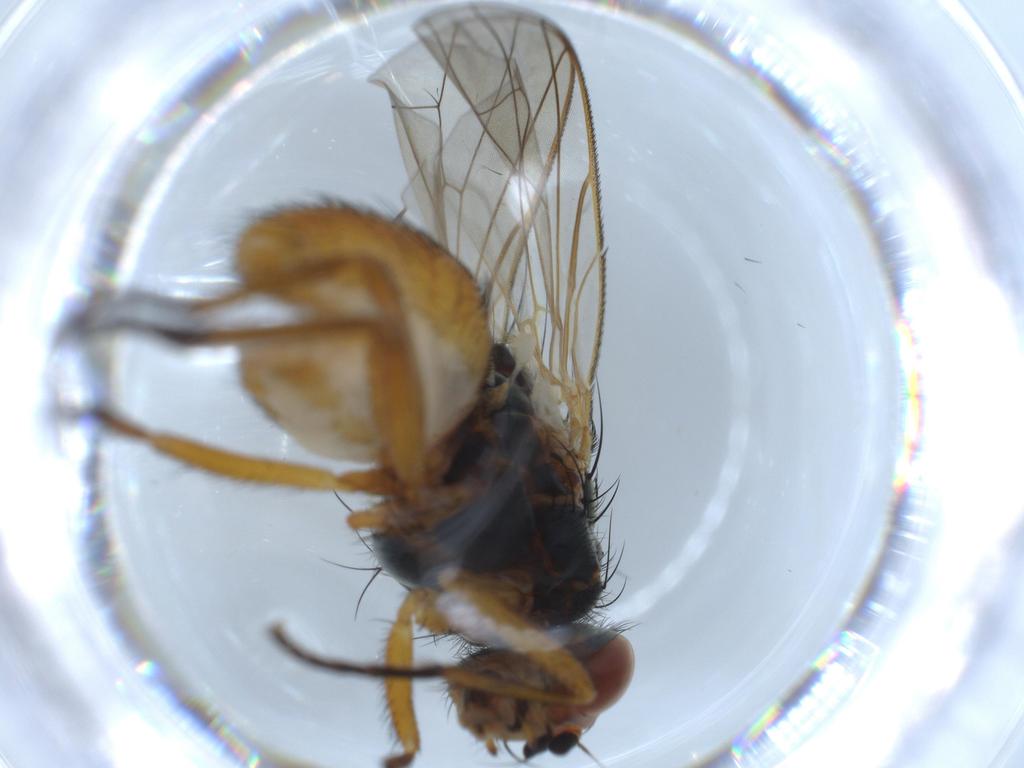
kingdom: Animalia
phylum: Arthropoda
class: Insecta
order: Diptera
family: Anthomyiidae
